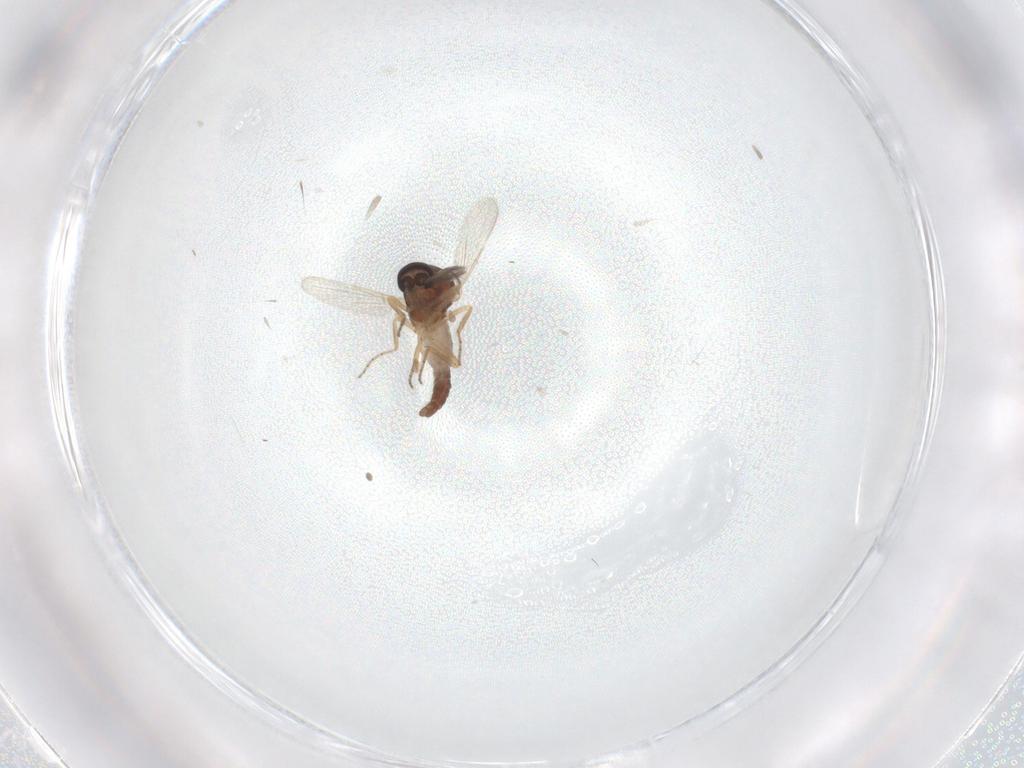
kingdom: Animalia
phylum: Arthropoda
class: Insecta
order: Diptera
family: Ceratopogonidae
